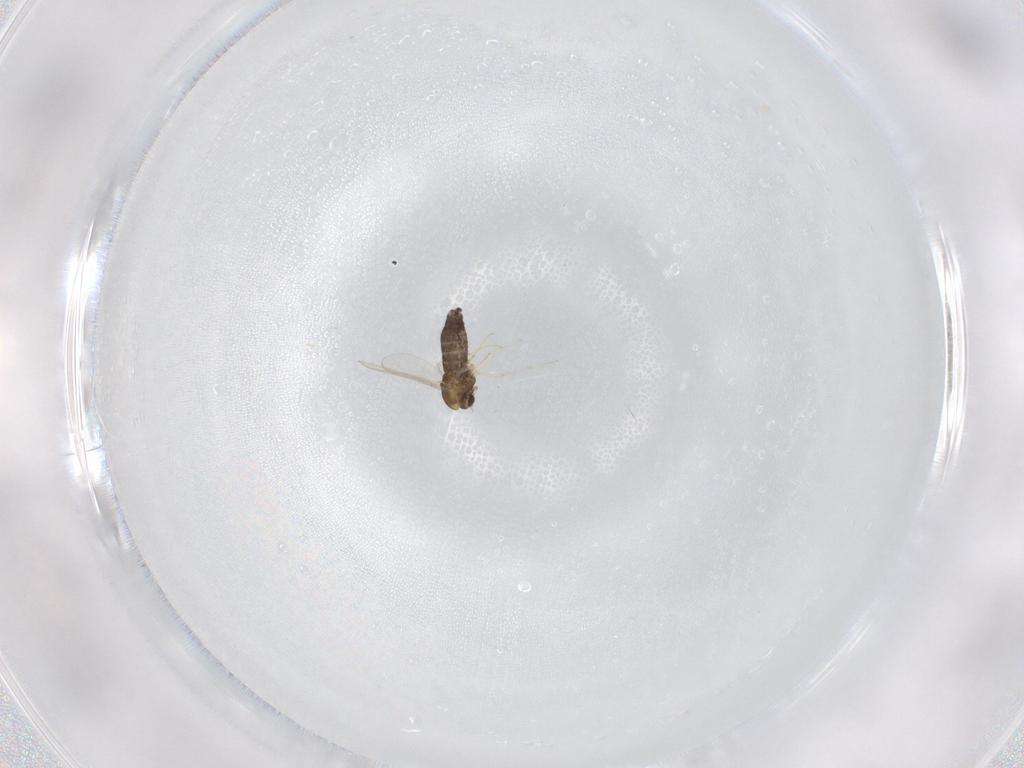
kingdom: Animalia
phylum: Arthropoda
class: Insecta
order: Diptera
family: Chironomidae
